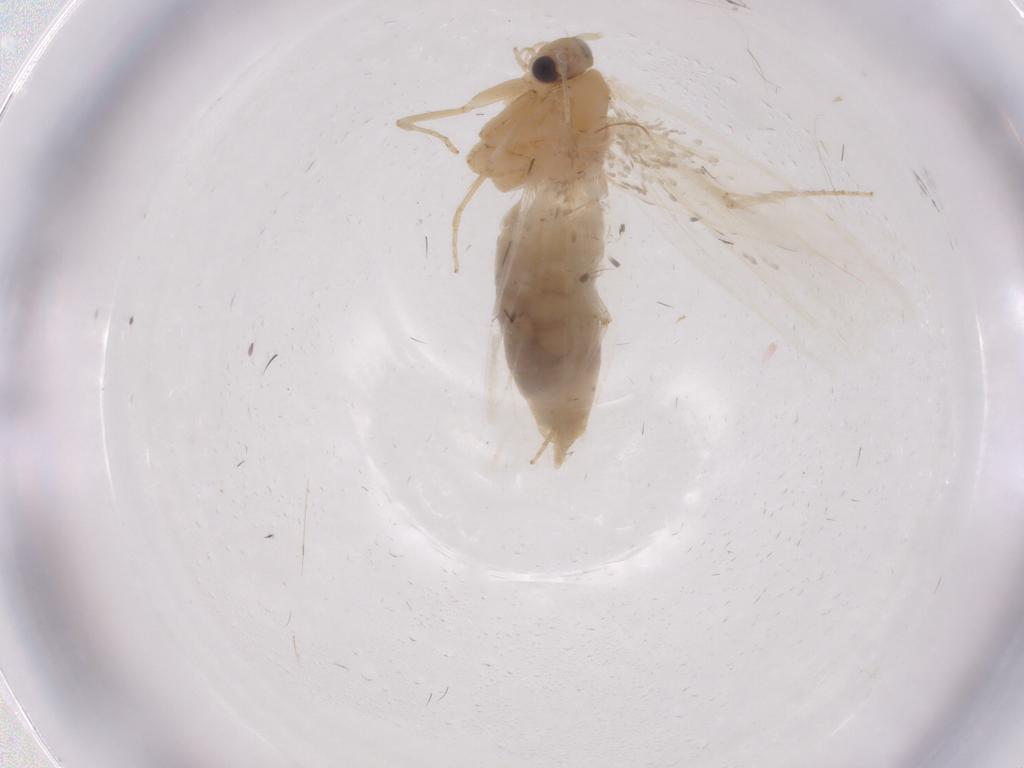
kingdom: Animalia
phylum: Arthropoda
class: Insecta
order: Lepidoptera
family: Tineidae
